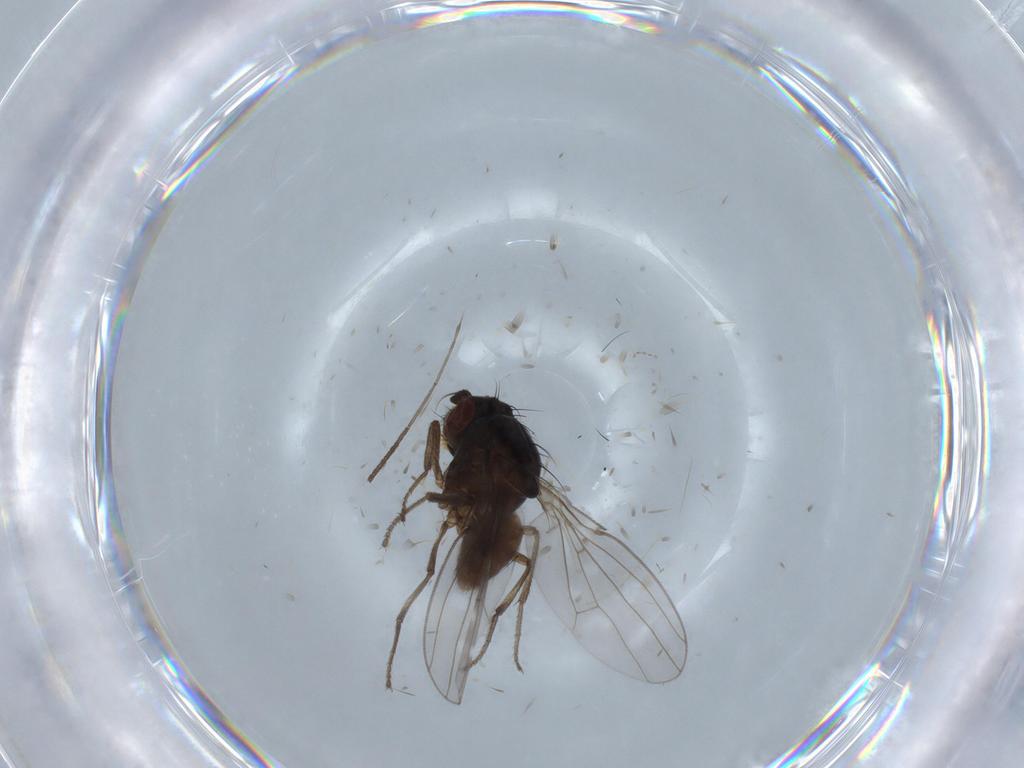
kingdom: Animalia
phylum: Arthropoda
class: Insecta
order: Diptera
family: Ephydridae
